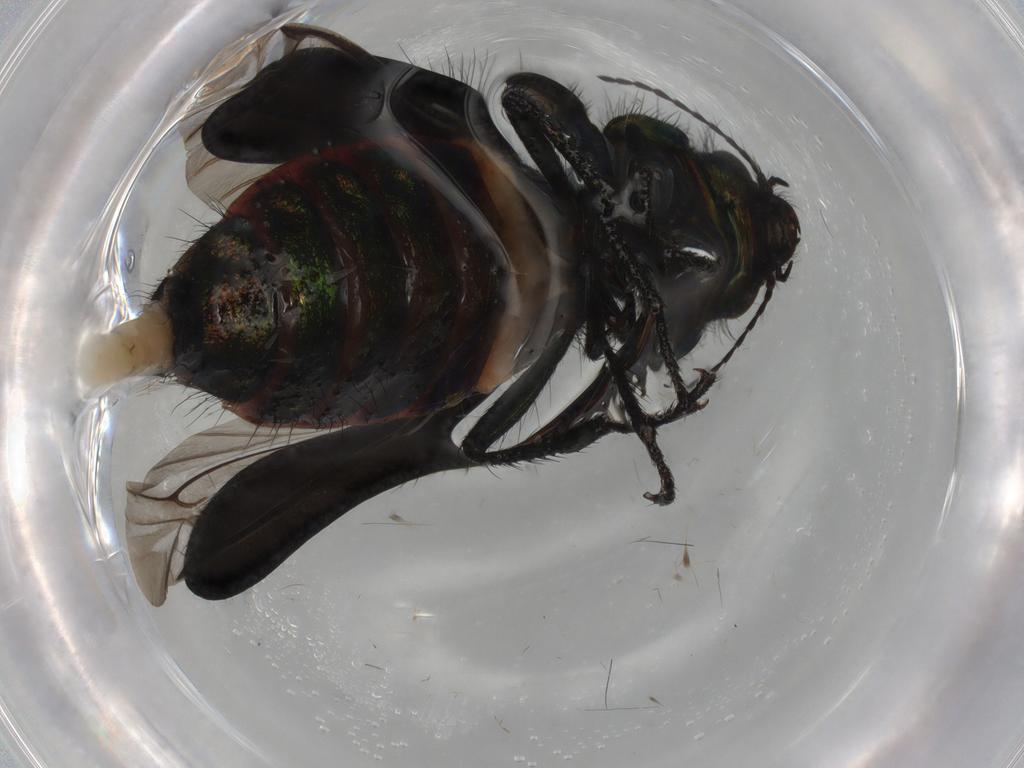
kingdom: Animalia
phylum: Arthropoda
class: Insecta
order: Coleoptera
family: Melyridae
